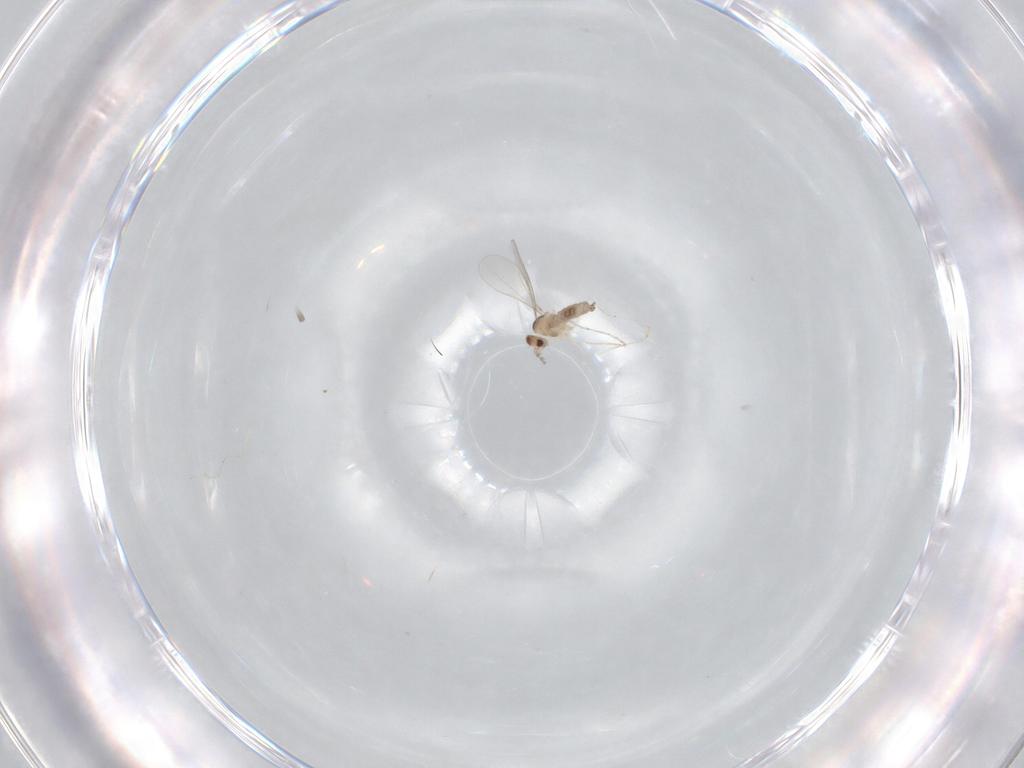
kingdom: Animalia
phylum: Arthropoda
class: Insecta
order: Diptera
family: Cecidomyiidae
